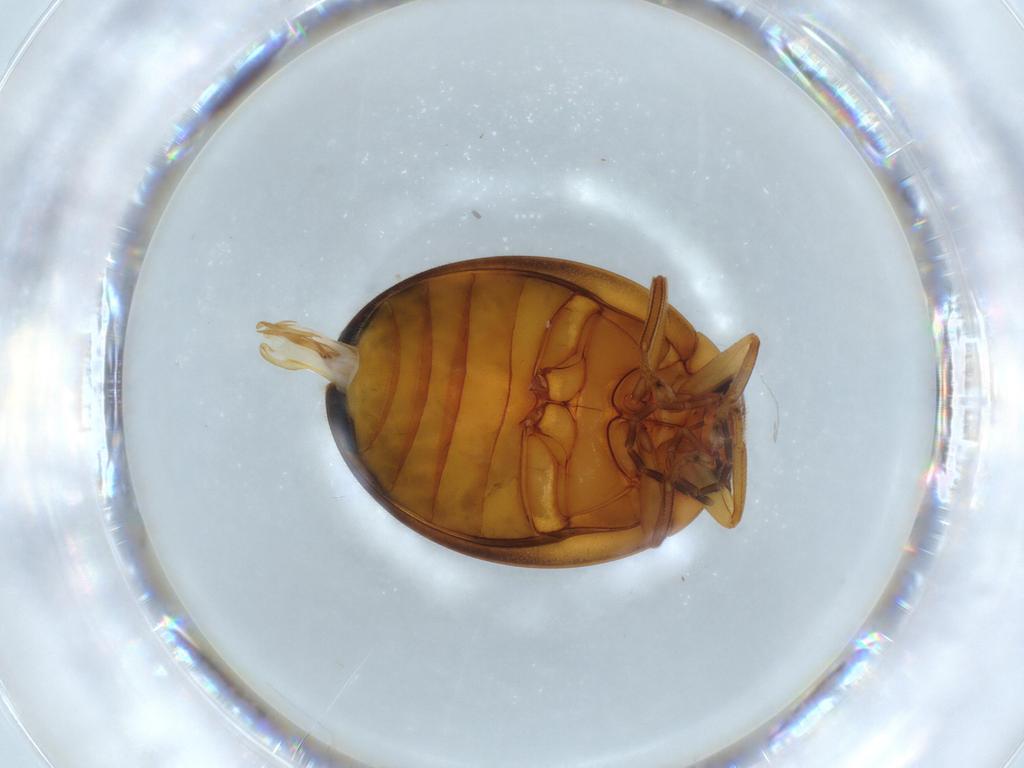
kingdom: Animalia
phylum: Arthropoda
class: Insecta
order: Coleoptera
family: Scirtidae
